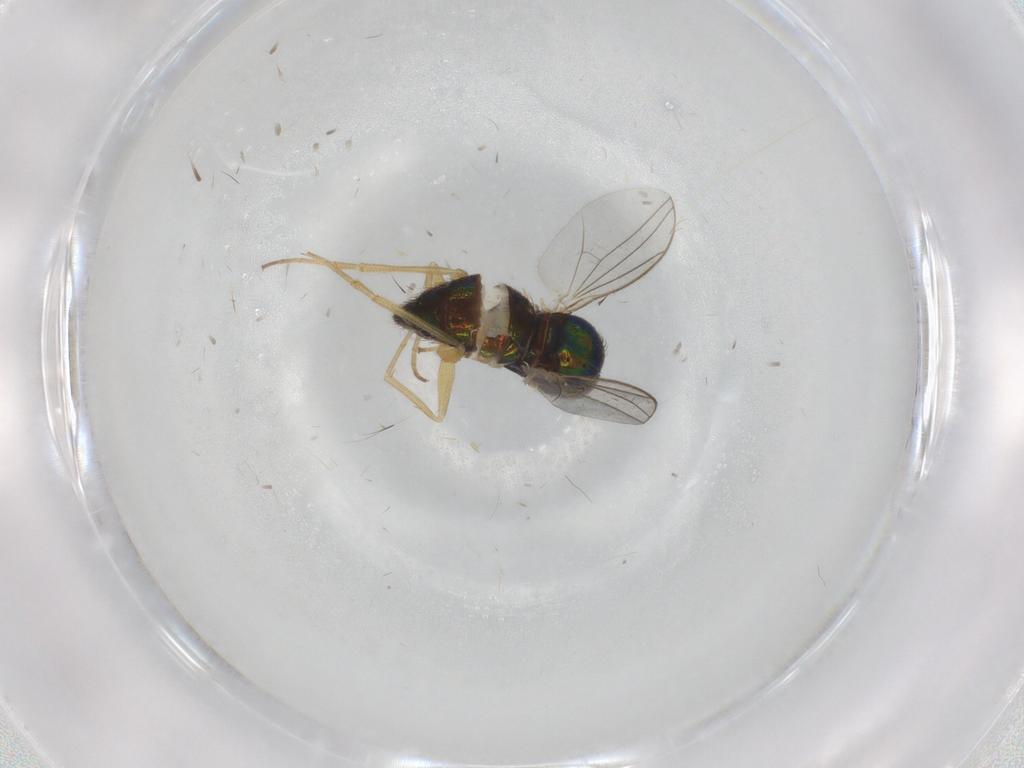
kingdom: Animalia
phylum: Arthropoda
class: Insecta
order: Diptera
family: Dolichopodidae
